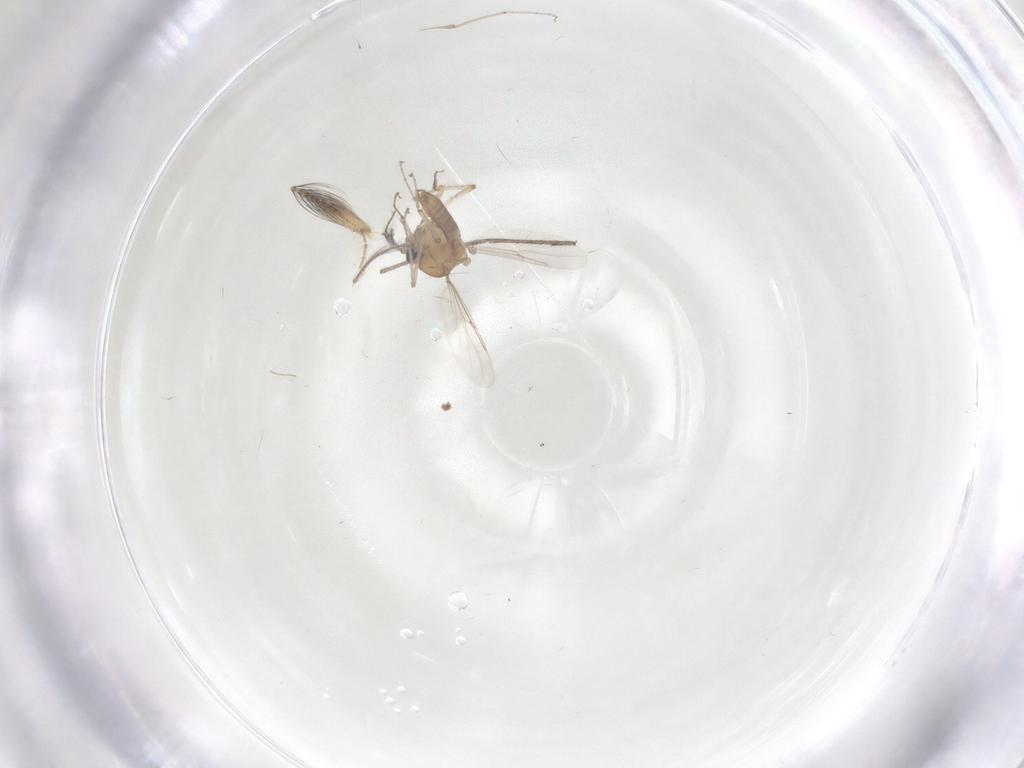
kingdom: Animalia
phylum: Arthropoda
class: Insecta
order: Diptera
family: Ceratopogonidae
